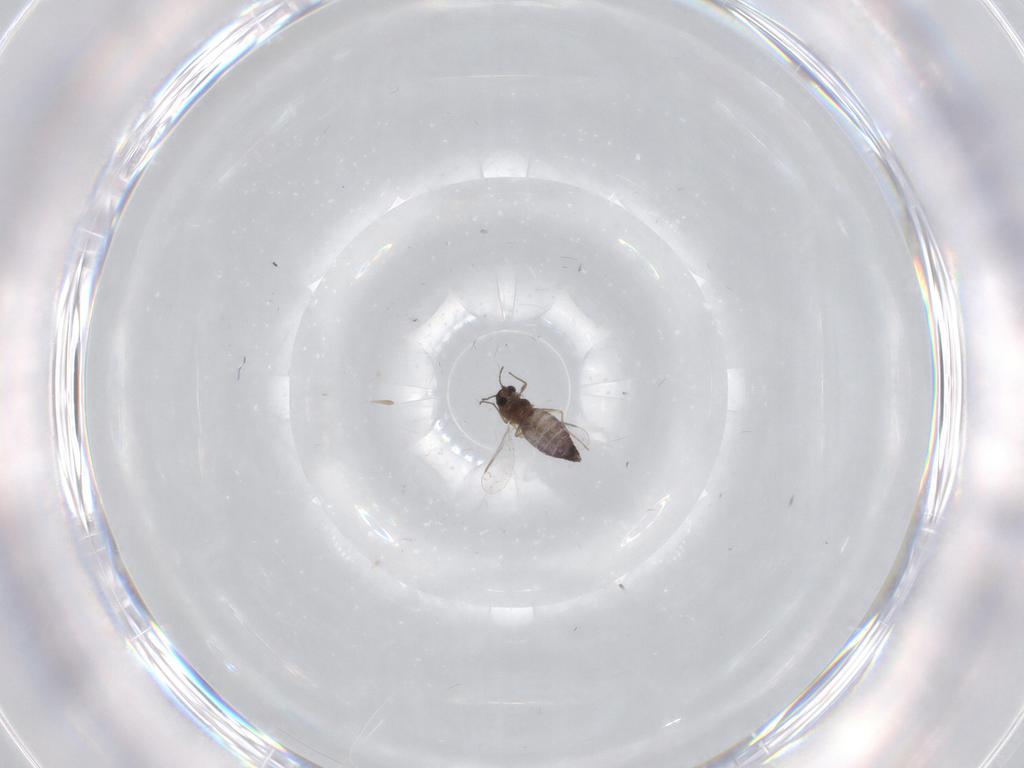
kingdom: Animalia
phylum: Arthropoda
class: Insecta
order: Diptera
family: Chironomidae
